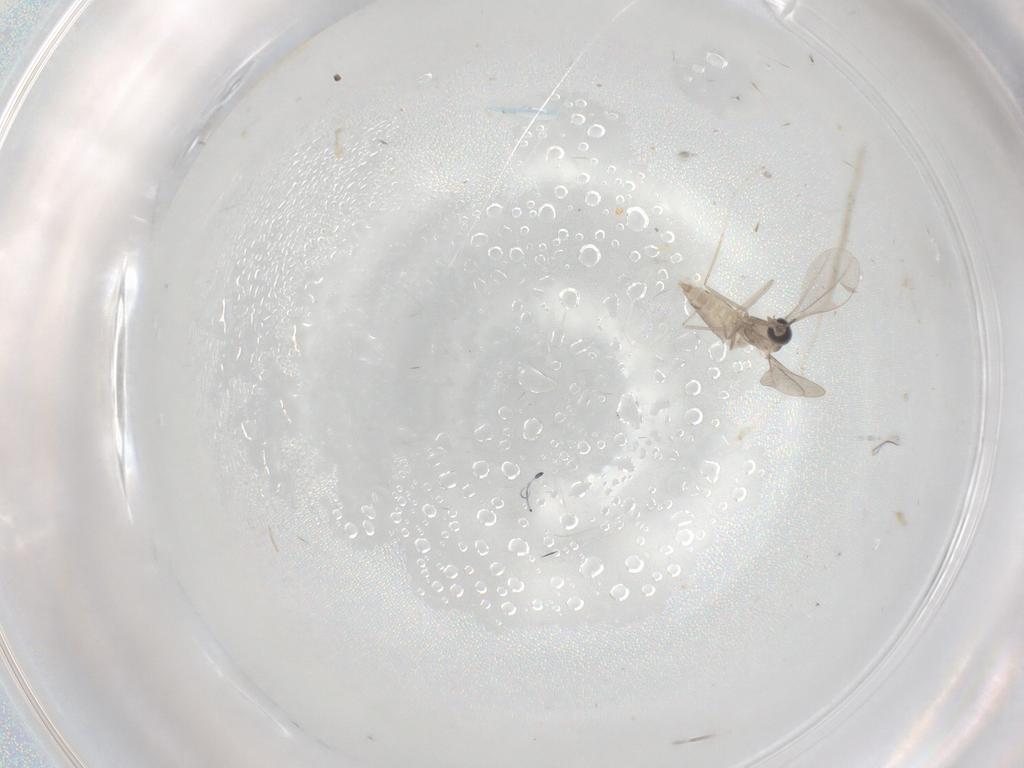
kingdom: Animalia
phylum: Arthropoda
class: Insecta
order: Diptera
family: Cecidomyiidae
